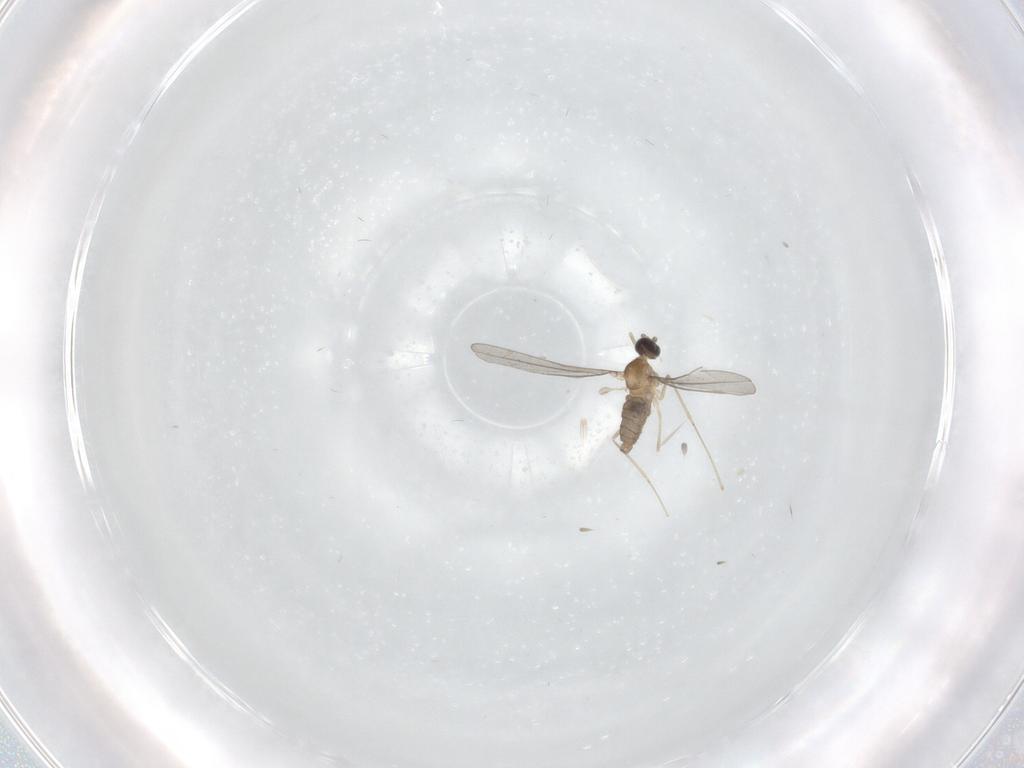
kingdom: Animalia
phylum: Arthropoda
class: Insecta
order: Diptera
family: Cecidomyiidae
